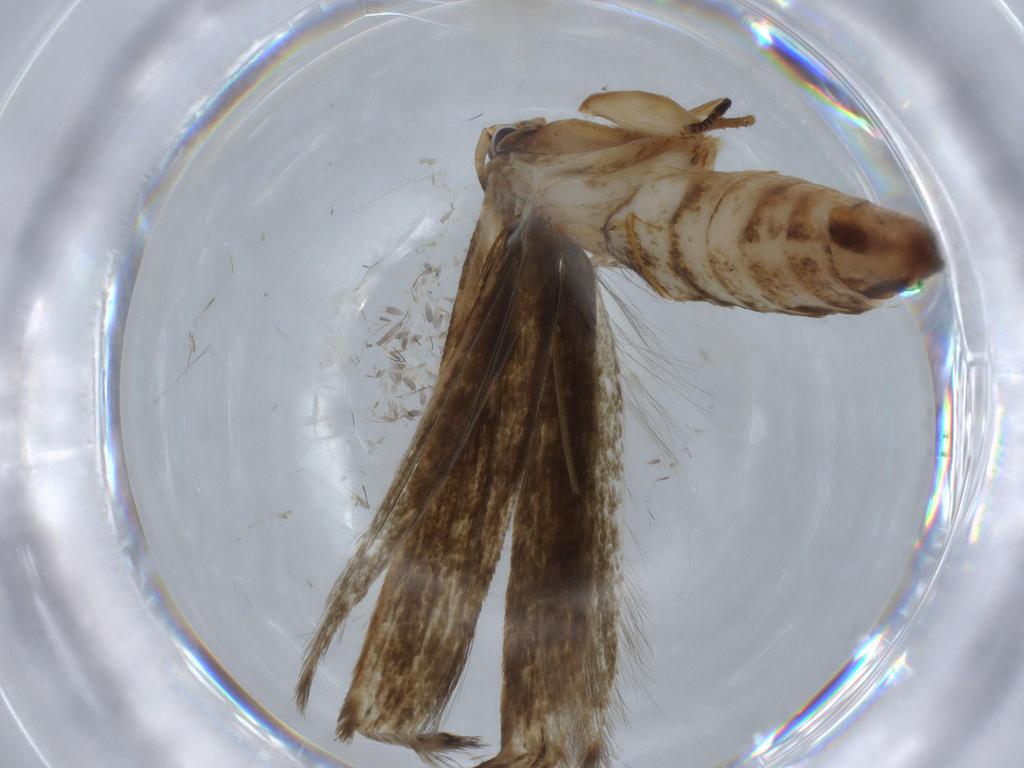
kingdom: Animalia
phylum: Arthropoda
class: Insecta
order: Lepidoptera
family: Tineidae
